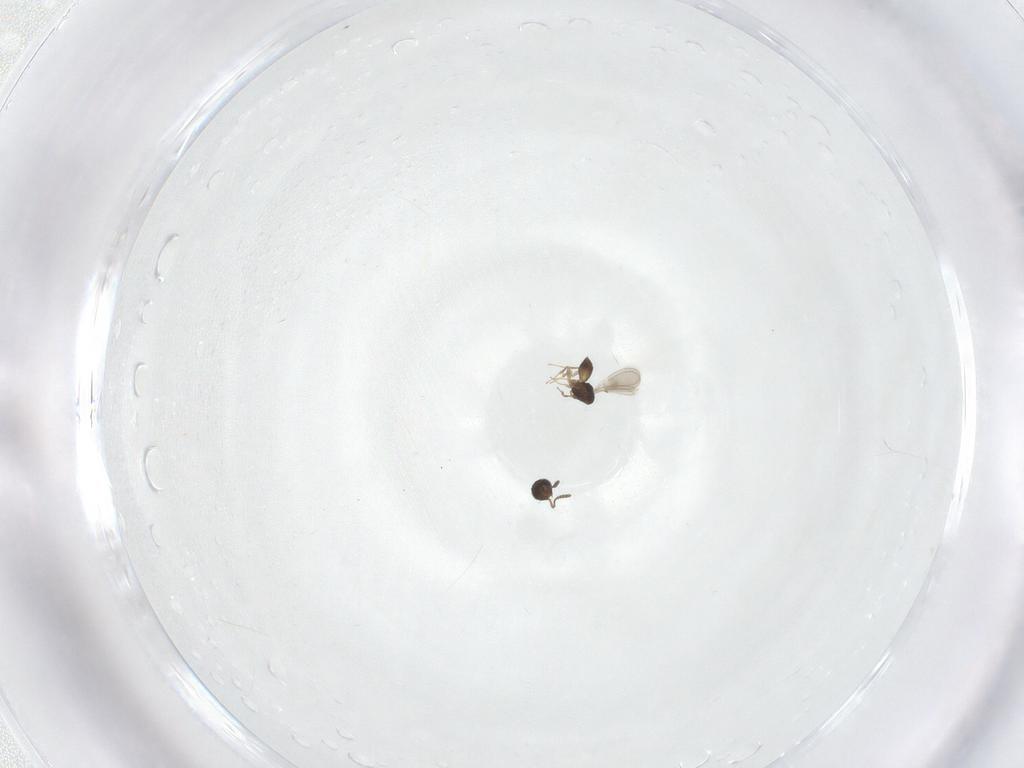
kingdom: Animalia
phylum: Arthropoda
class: Insecta
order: Hymenoptera
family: Scelionidae
